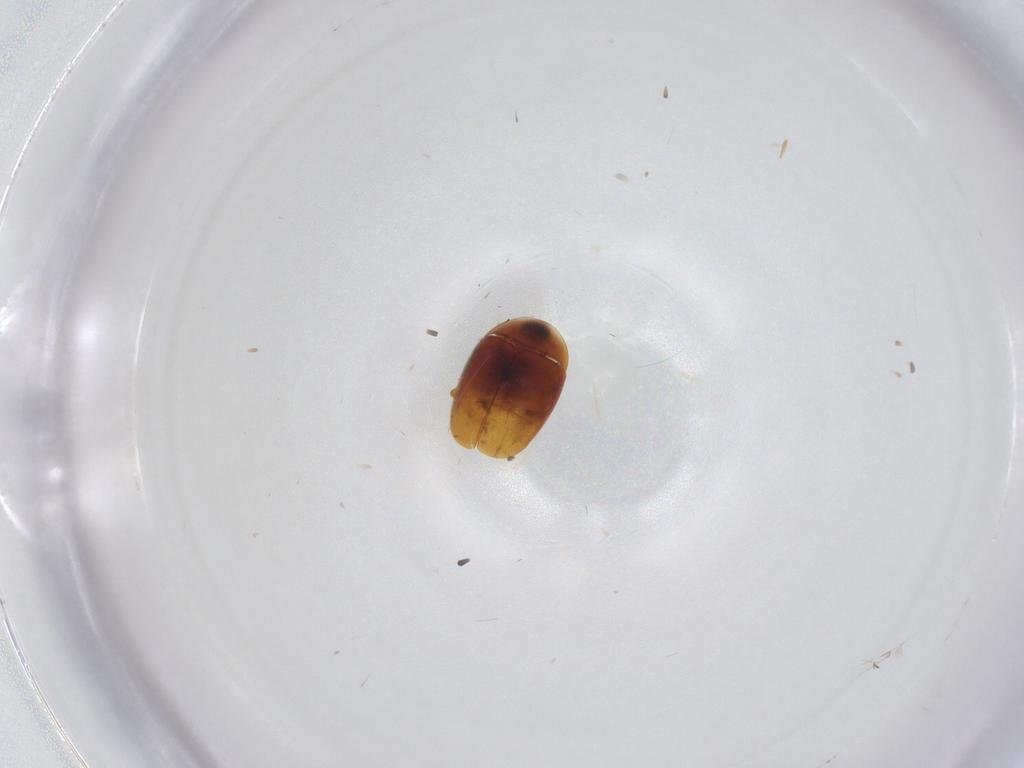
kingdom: Animalia
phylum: Arthropoda
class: Insecta
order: Coleoptera
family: Corylophidae
